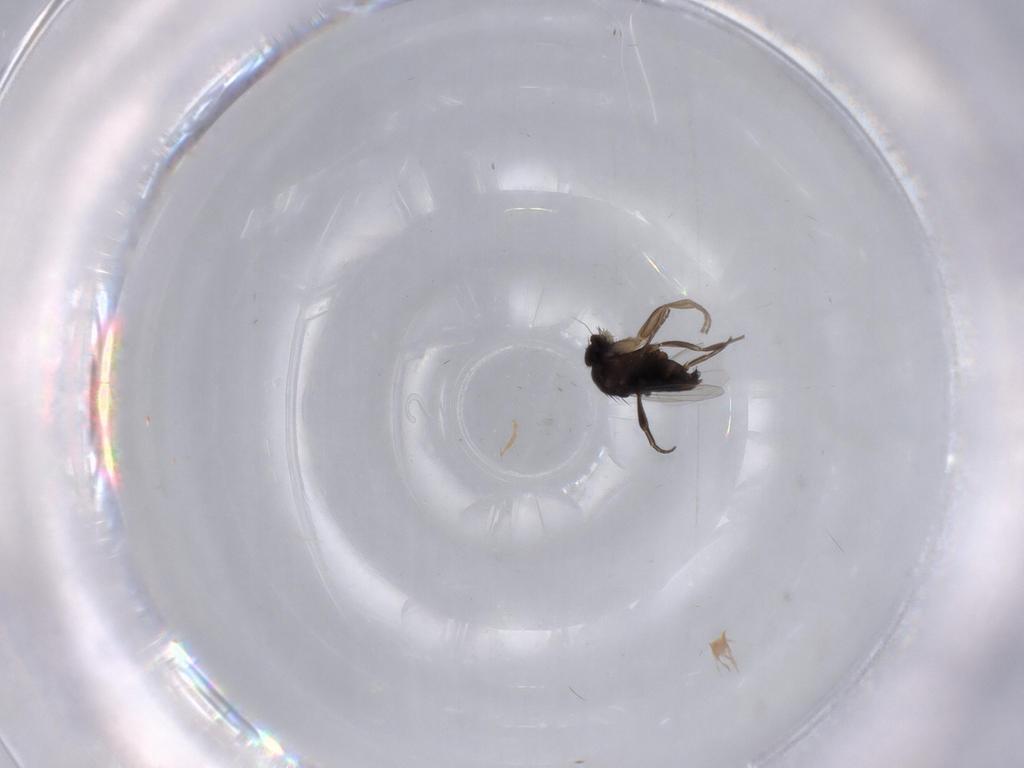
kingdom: Animalia
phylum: Arthropoda
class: Insecta
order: Diptera
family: Phoridae
